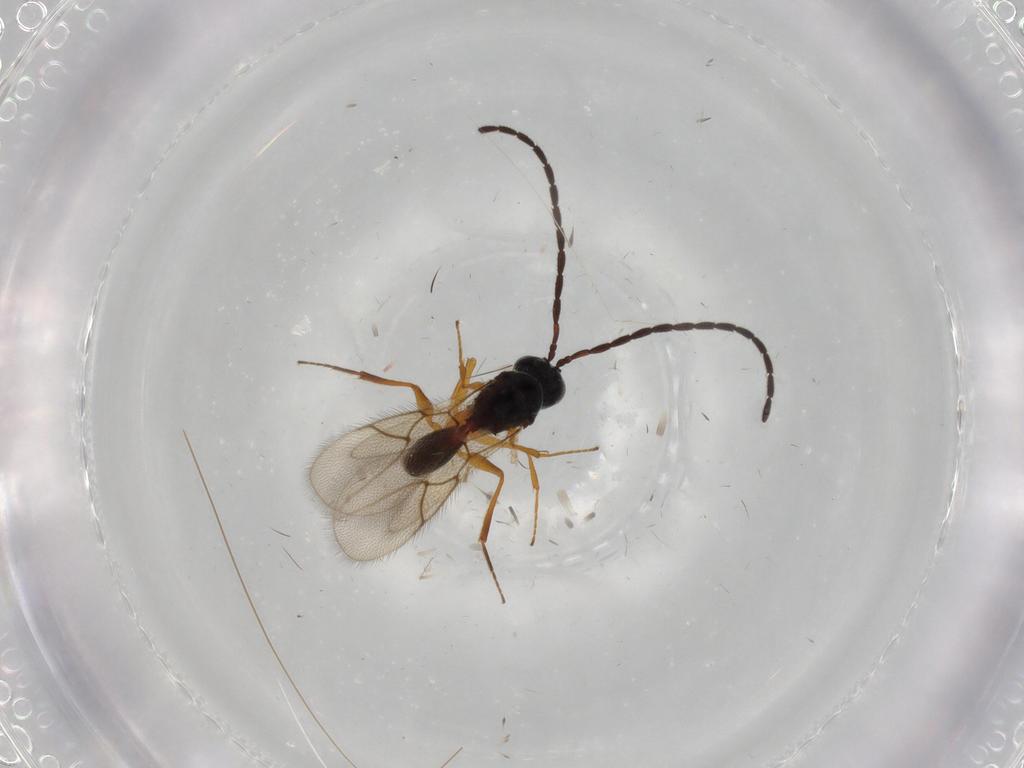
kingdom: Animalia
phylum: Arthropoda
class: Insecta
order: Hymenoptera
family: Figitidae
